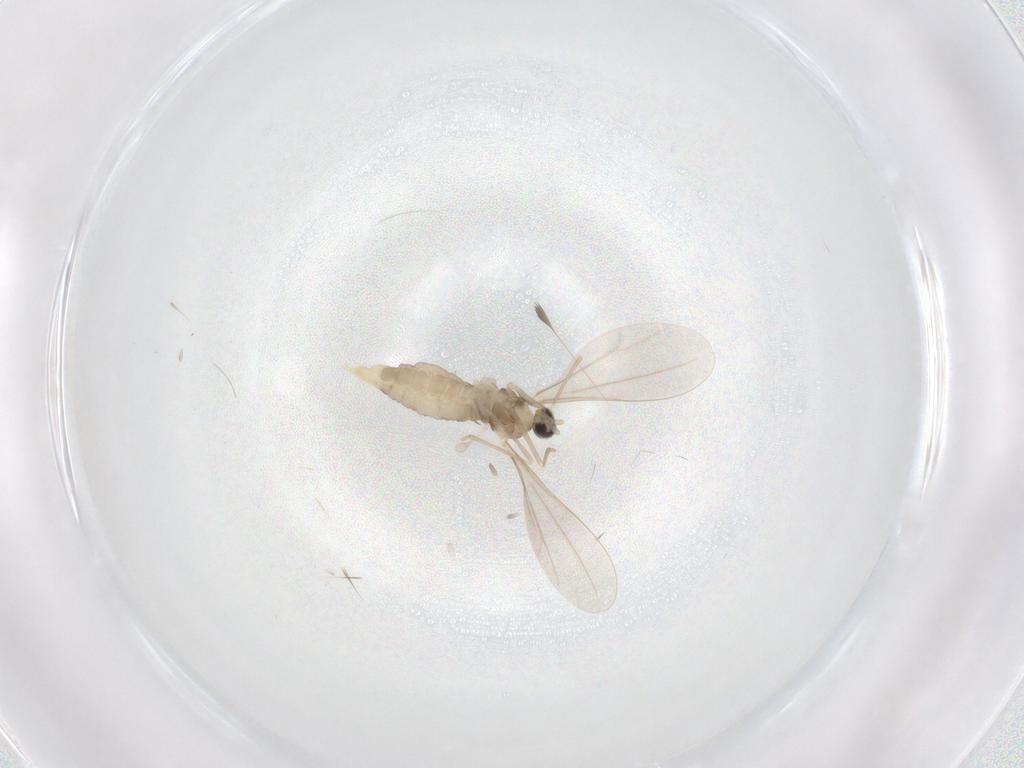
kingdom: Animalia
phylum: Arthropoda
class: Insecta
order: Diptera
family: Cecidomyiidae
